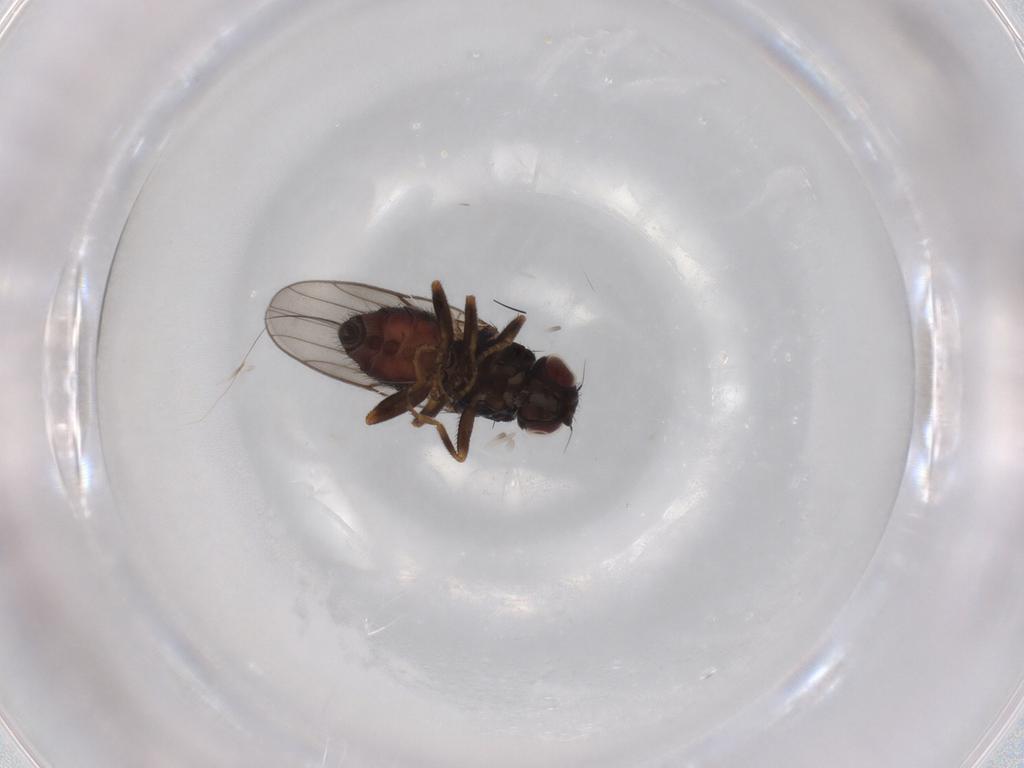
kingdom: Animalia
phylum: Arthropoda
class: Insecta
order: Diptera
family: Chloropidae
